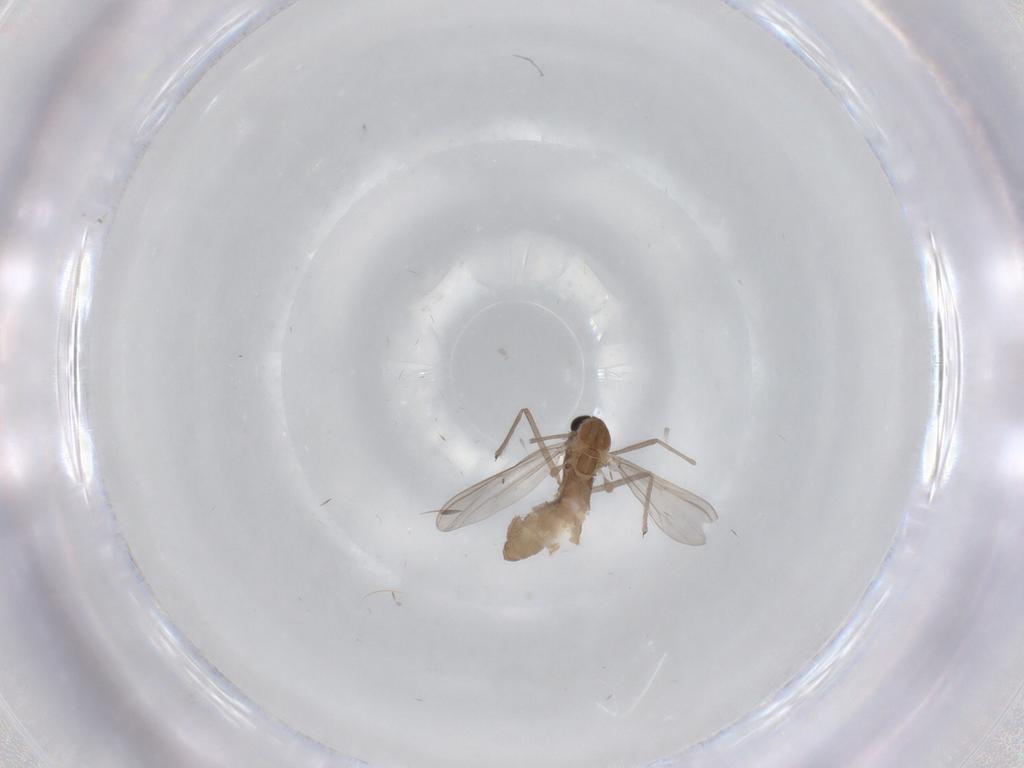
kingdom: Animalia
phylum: Arthropoda
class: Insecta
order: Diptera
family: Chironomidae
